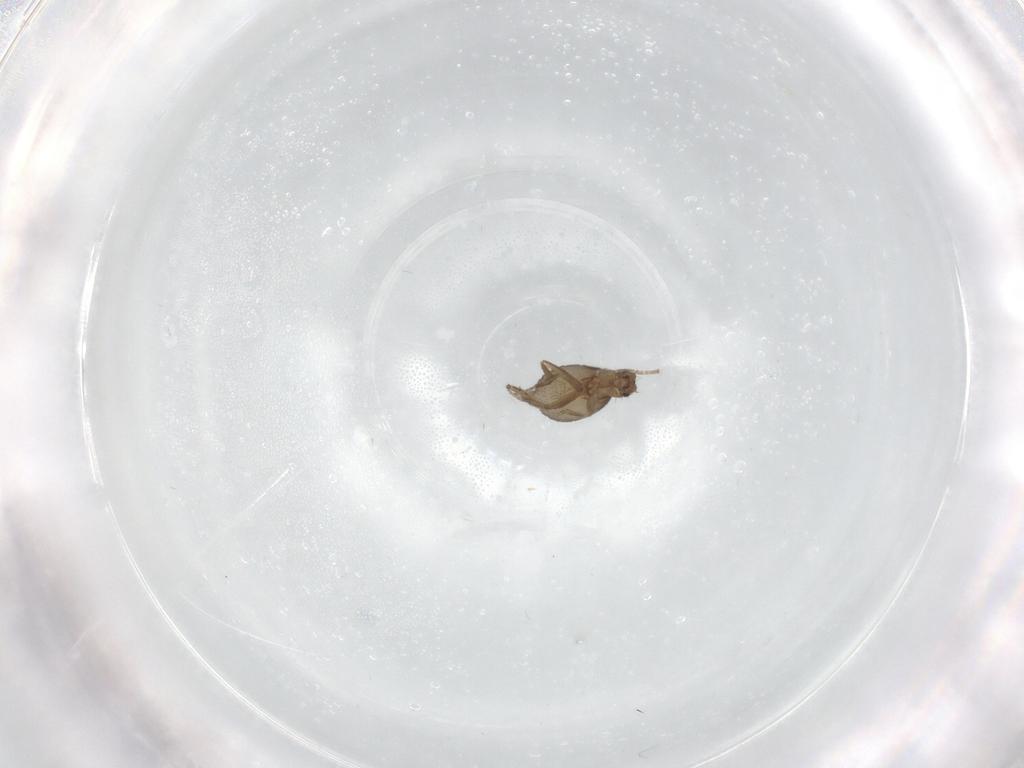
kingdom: Animalia
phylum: Arthropoda
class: Insecta
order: Diptera
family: Phoridae
